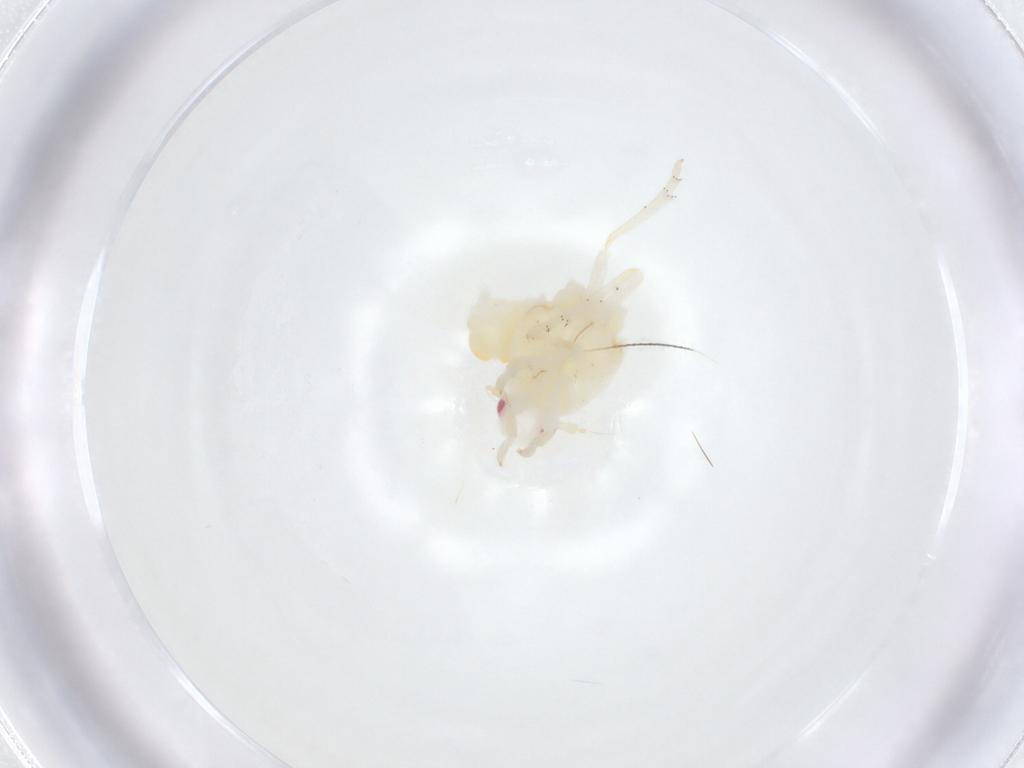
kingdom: Animalia
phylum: Arthropoda
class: Insecta
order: Hemiptera
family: Flatidae
